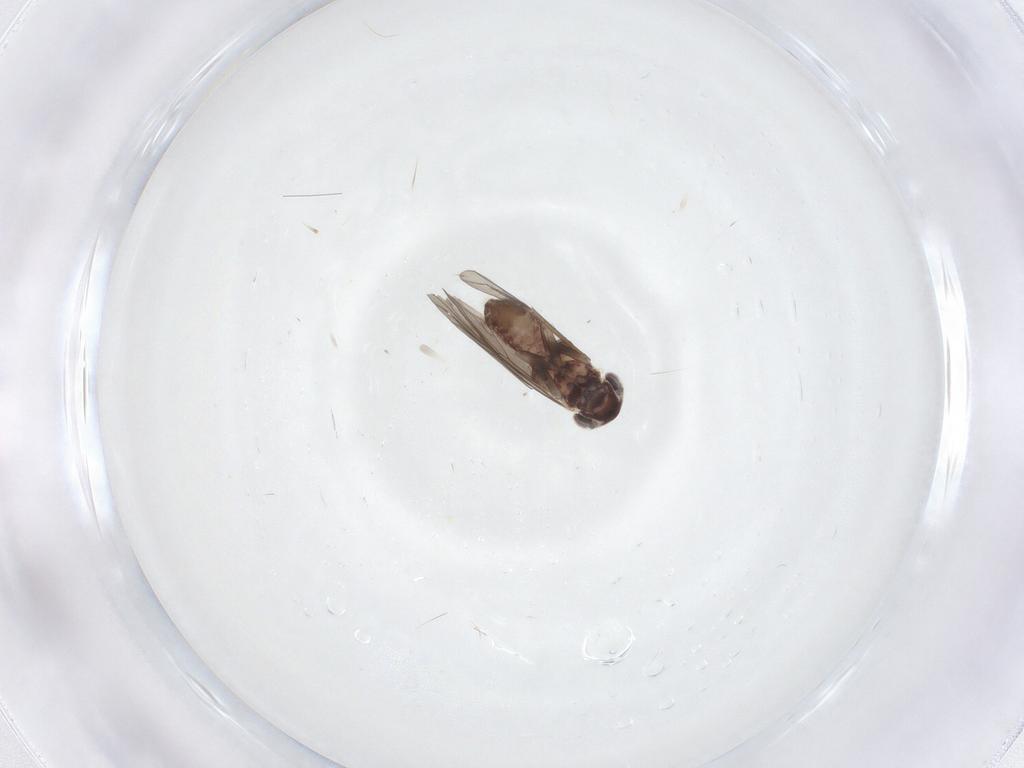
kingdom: Animalia
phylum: Arthropoda
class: Insecta
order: Psocodea
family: Amphientomidae
